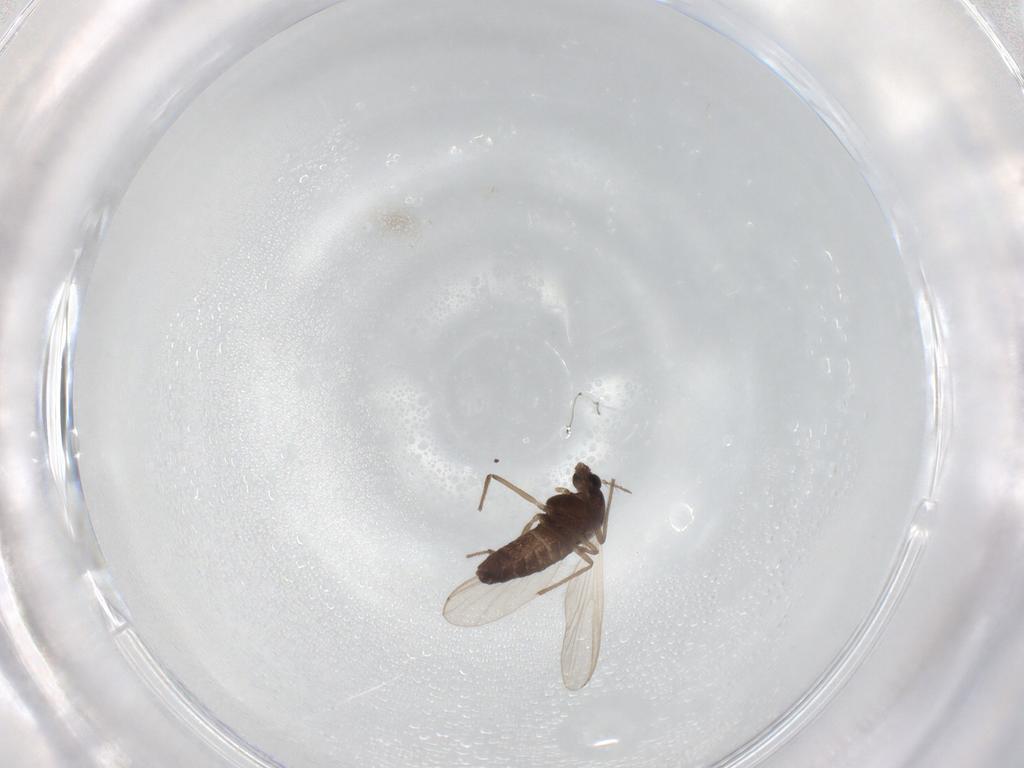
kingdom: Animalia
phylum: Arthropoda
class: Insecta
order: Diptera
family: Chironomidae
